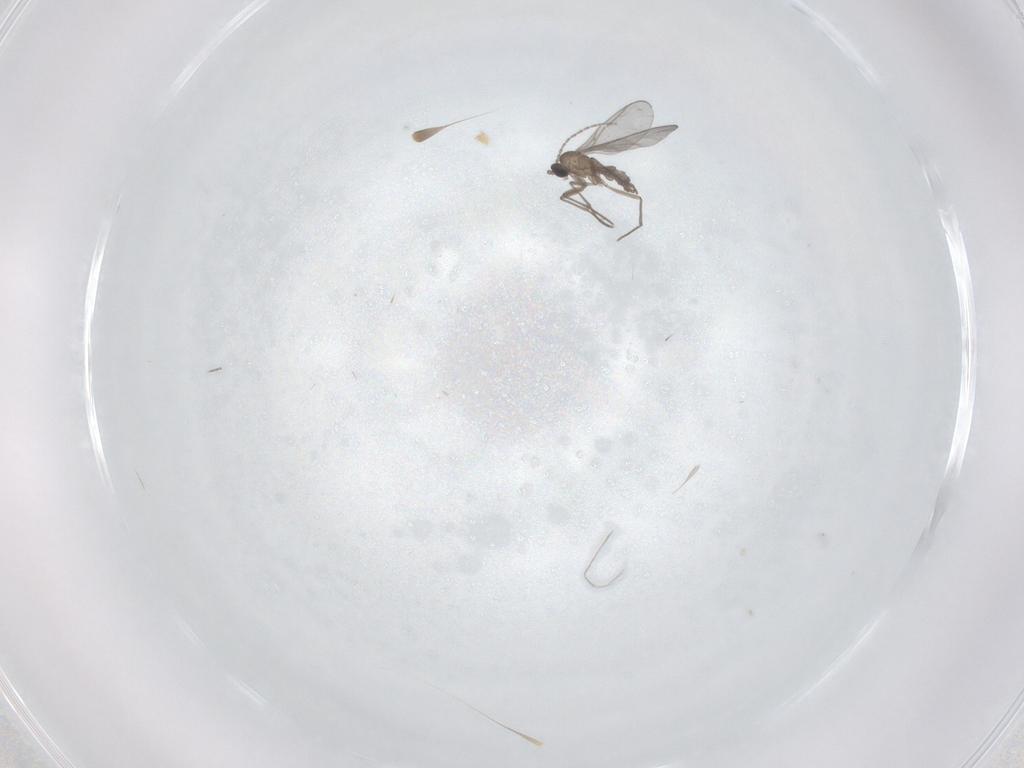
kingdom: Animalia
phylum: Arthropoda
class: Insecta
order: Diptera
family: Sciaridae
